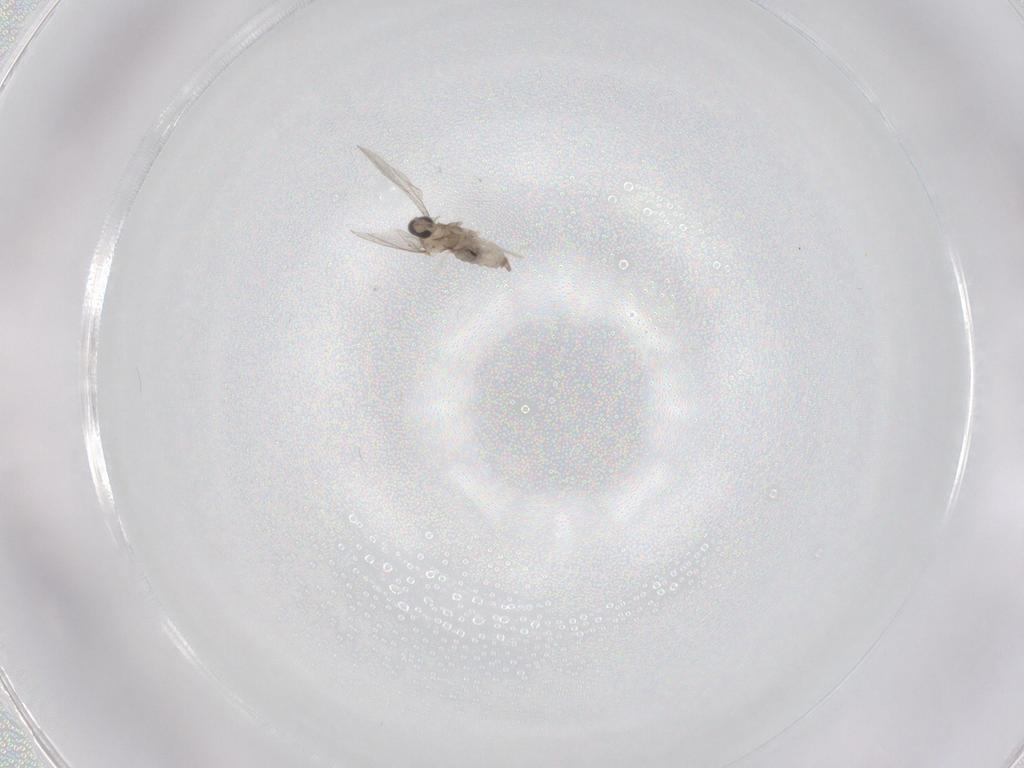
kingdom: Animalia
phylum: Arthropoda
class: Insecta
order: Diptera
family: Cecidomyiidae
